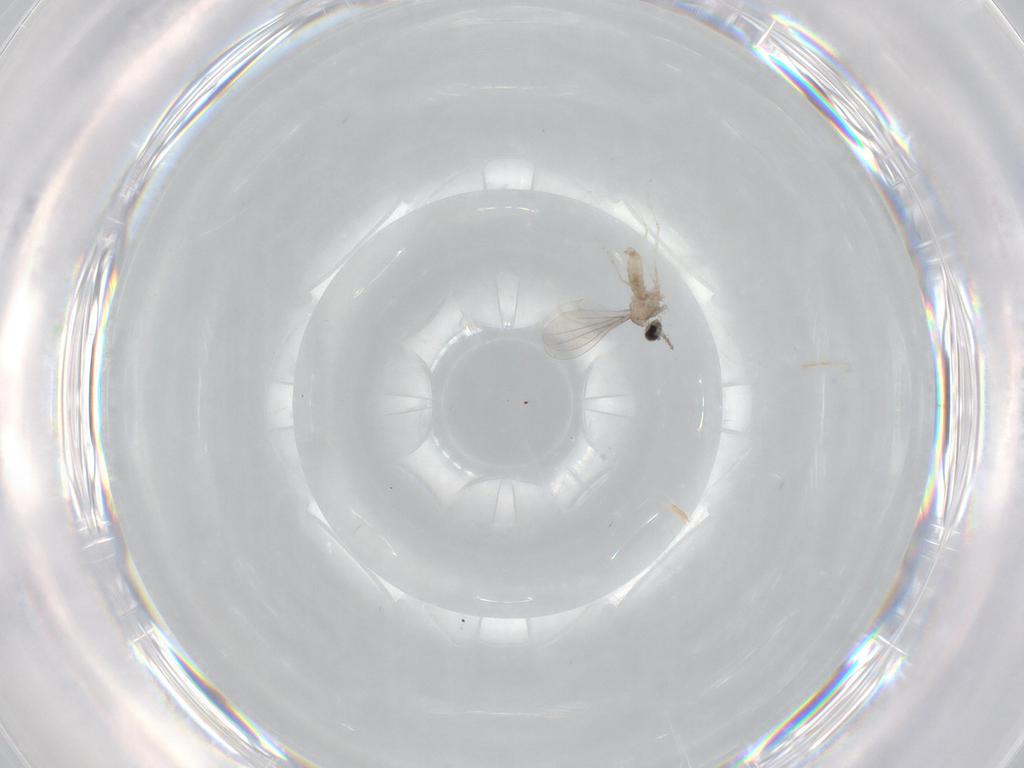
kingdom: Animalia
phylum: Arthropoda
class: Insecta
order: Diptera
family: Cecidomyiidae
